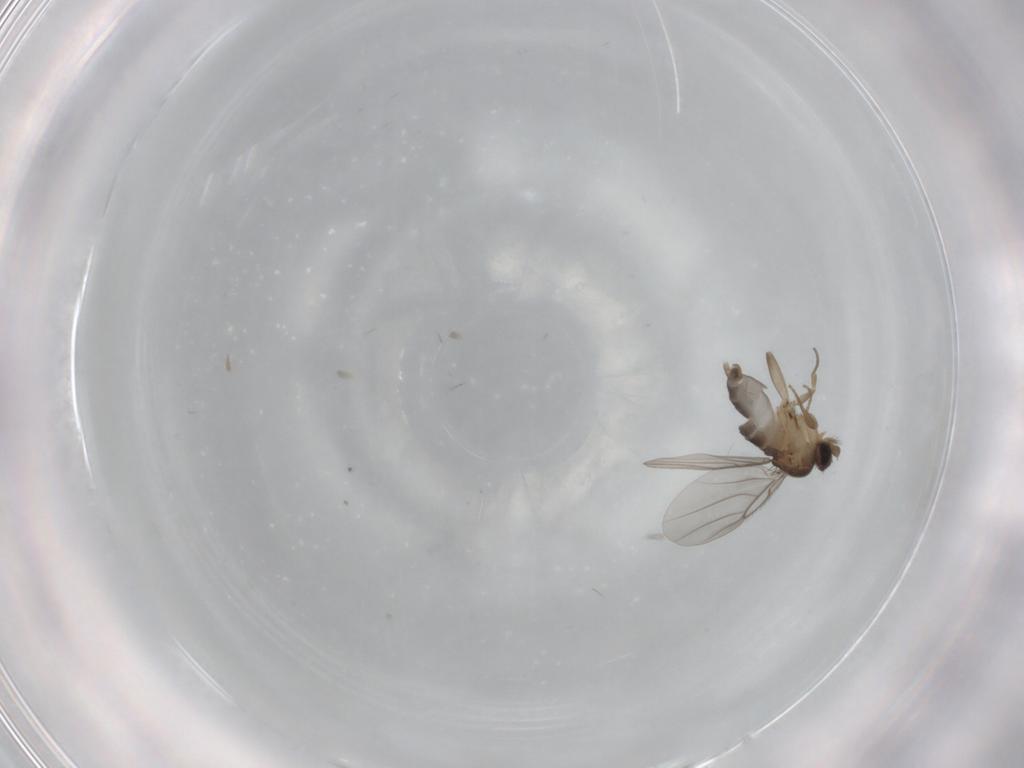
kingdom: Animalia
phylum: Arthropoda
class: Insecta
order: Diptera
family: Phoridae
